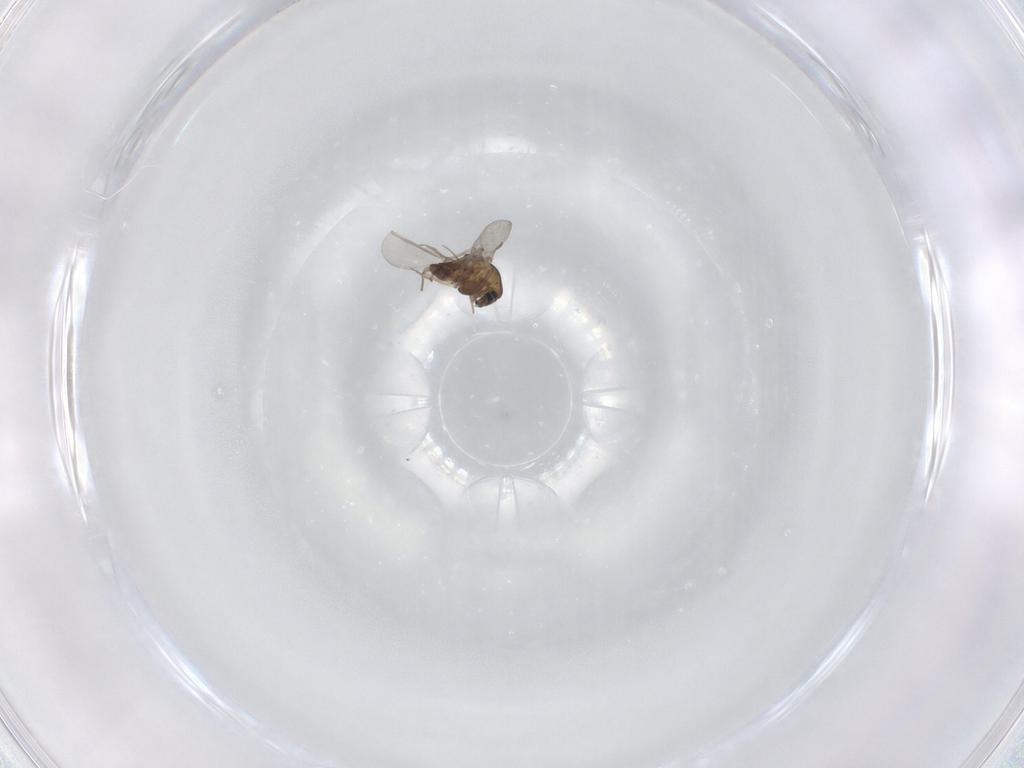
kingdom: Animalia
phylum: Arthropoda
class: Insecta
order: Diptera
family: Chironomidae
